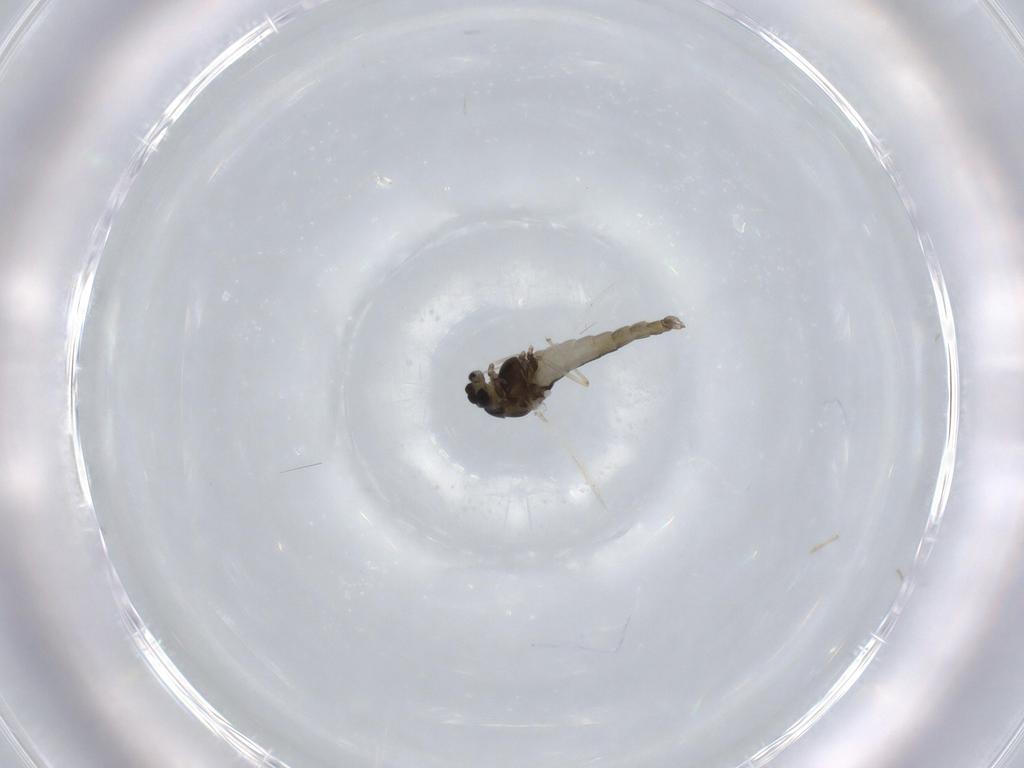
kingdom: Animalia
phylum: Arthropoda
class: Insecta
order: Diptera
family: Chironomidae
